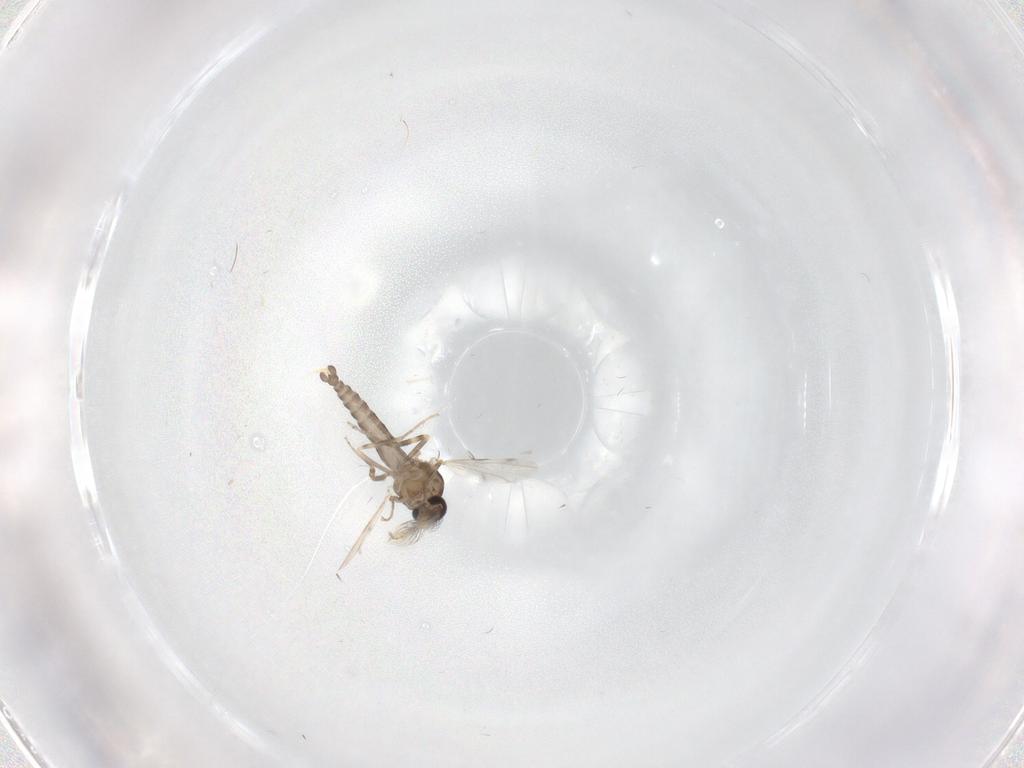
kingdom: Animalia
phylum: Arthropoda
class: Insecta
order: Diptera
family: Ceratopogonidae
